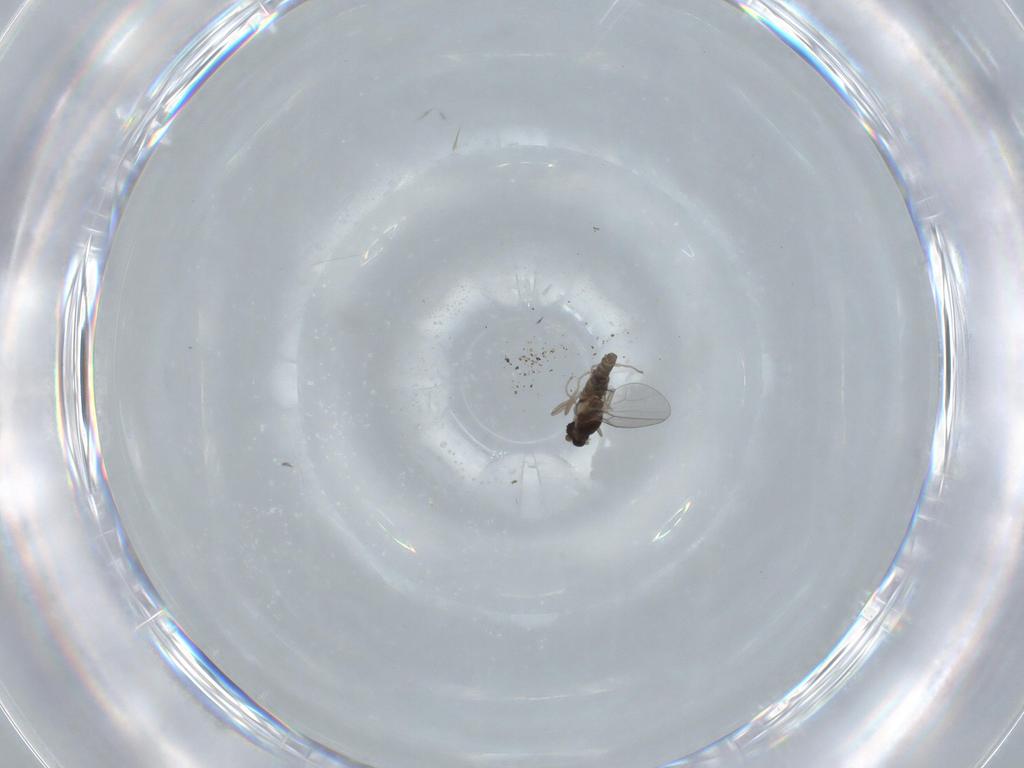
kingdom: Animalia
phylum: Arthropoda
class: Insecta
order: Diptera
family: Cecidomyiidae
